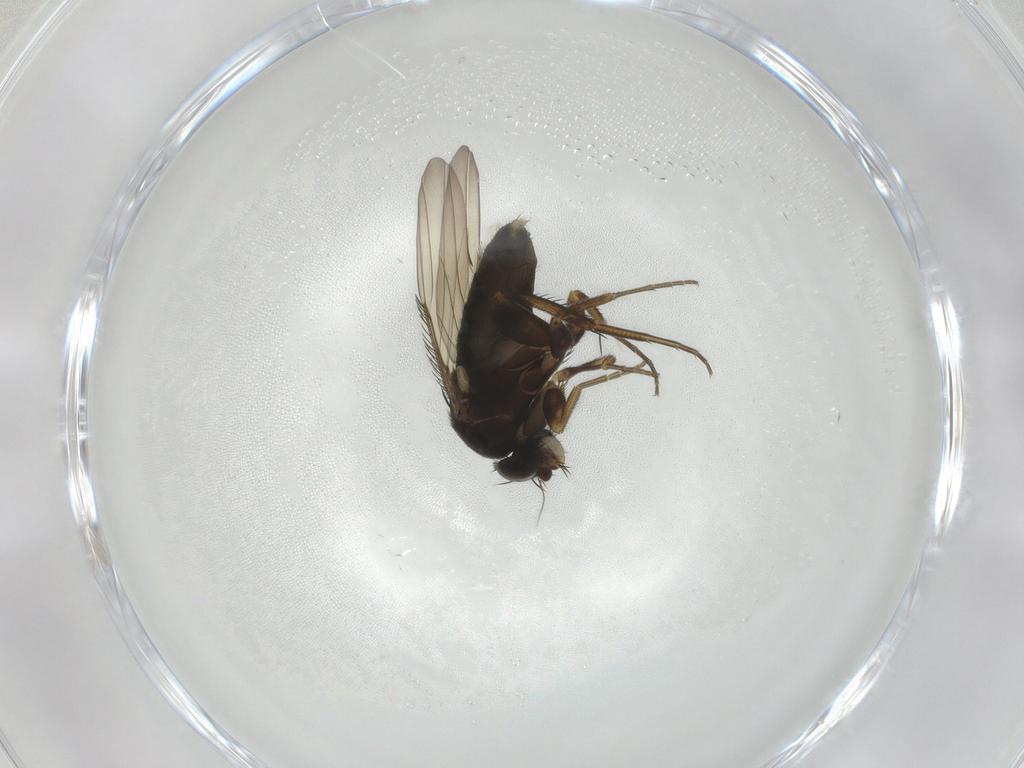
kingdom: Animalia
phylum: Arthropoda
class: Insecta
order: Diptera
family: Phoridae
